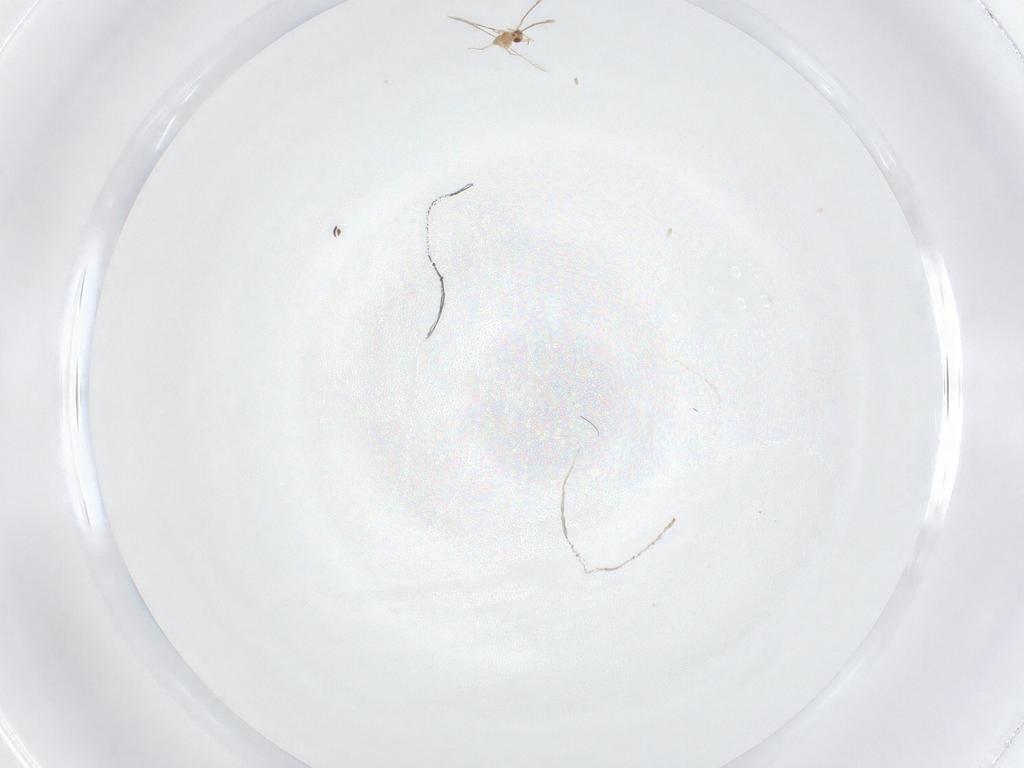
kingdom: Animalia
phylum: Arthropoda
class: Insecta
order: Hymenoptera
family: Mymaridae
